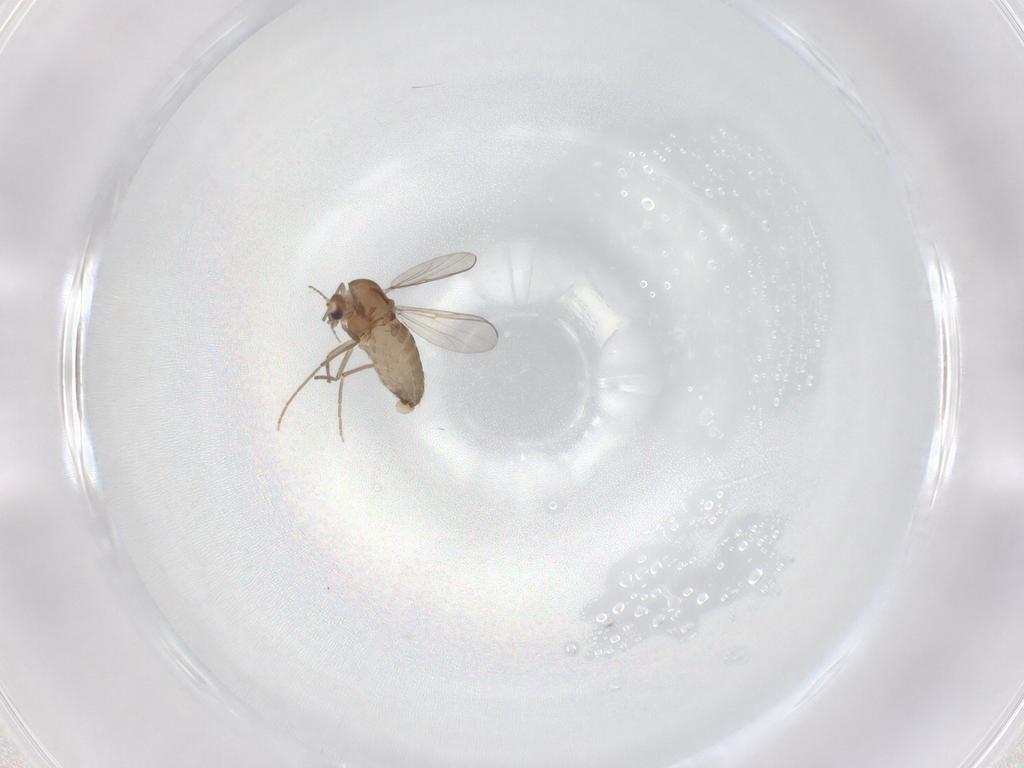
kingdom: Animalia
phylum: Arthropoda
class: Insecta
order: Diptera
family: Chironomidae
